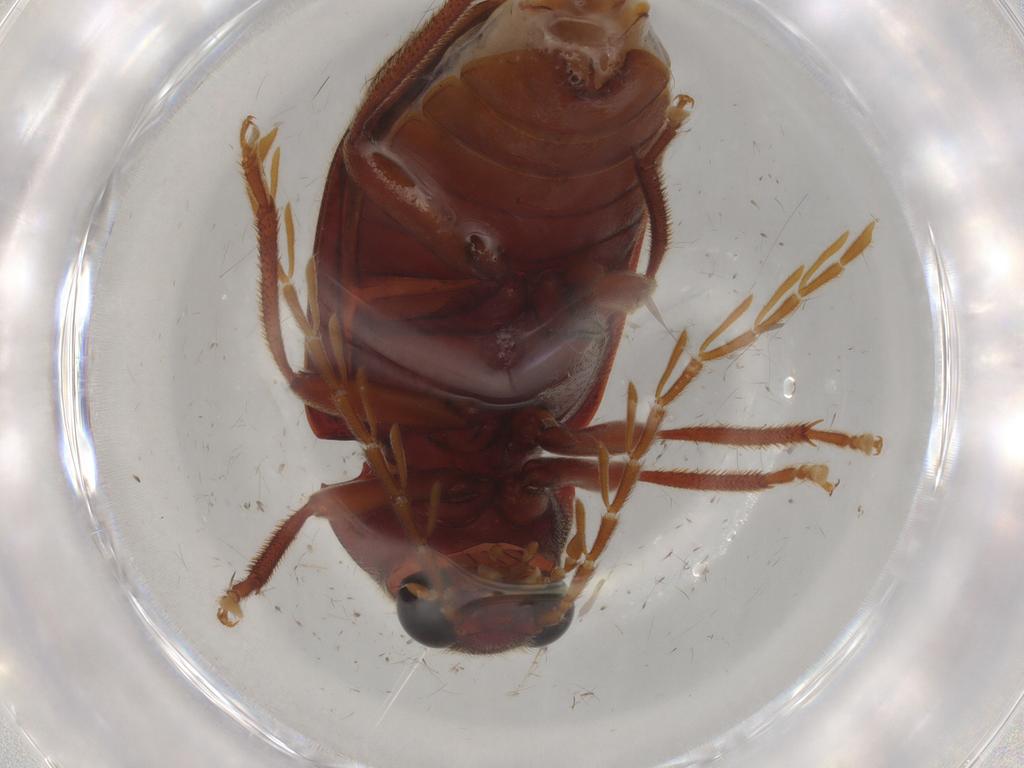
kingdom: Animalia
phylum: Arthropoda
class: Insecta
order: Coleoptera
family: Ptilodactylidae
